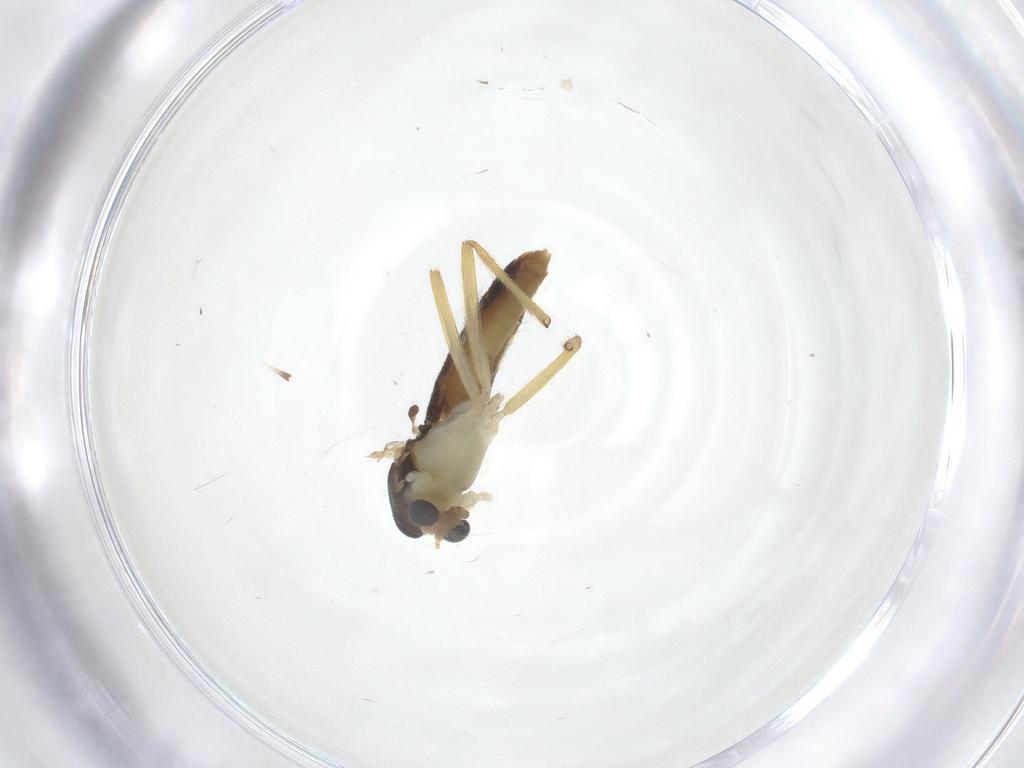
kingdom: Animalia
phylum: Arthropoda
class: Insecta
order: Diptera
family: Chironomidae
